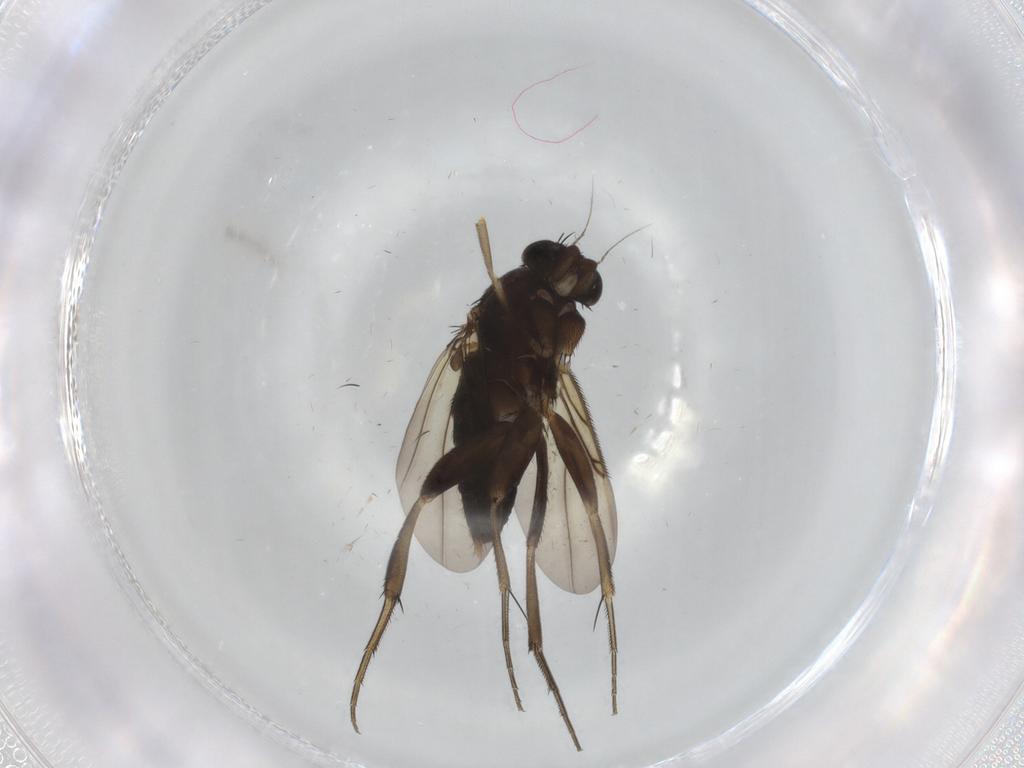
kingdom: Animalia
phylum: Arthropoda
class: Insecta
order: Diptera
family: Phoridae
